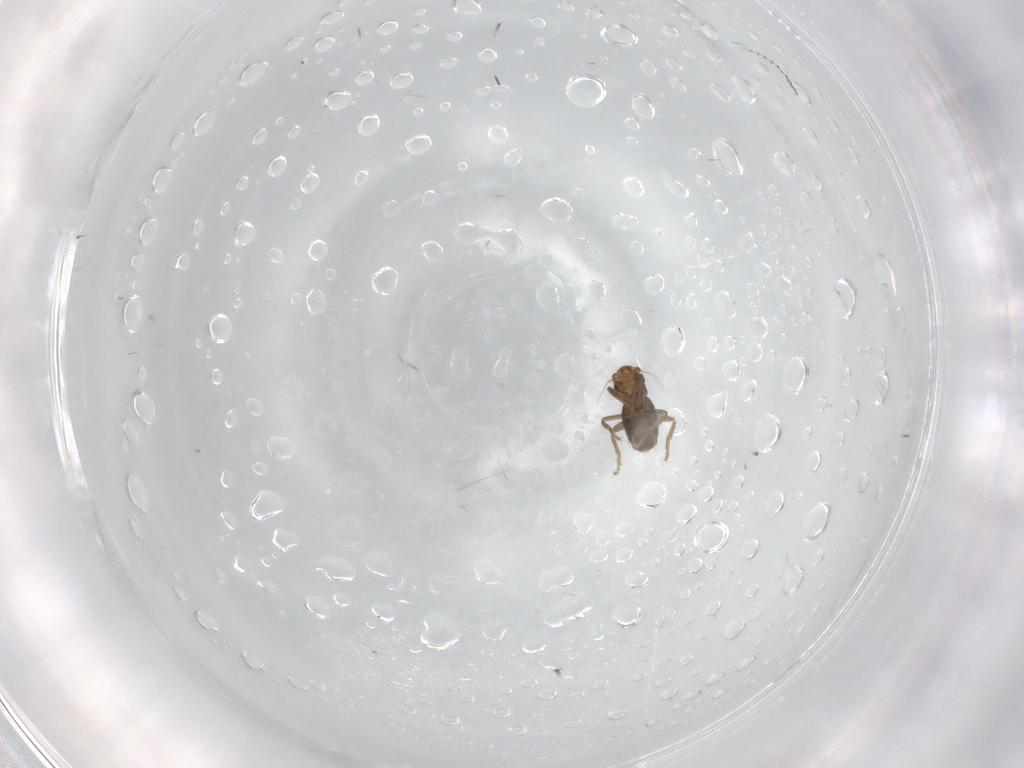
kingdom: Animalia
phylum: Arthropoda
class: Insecta
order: Diptera
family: Phoridae
